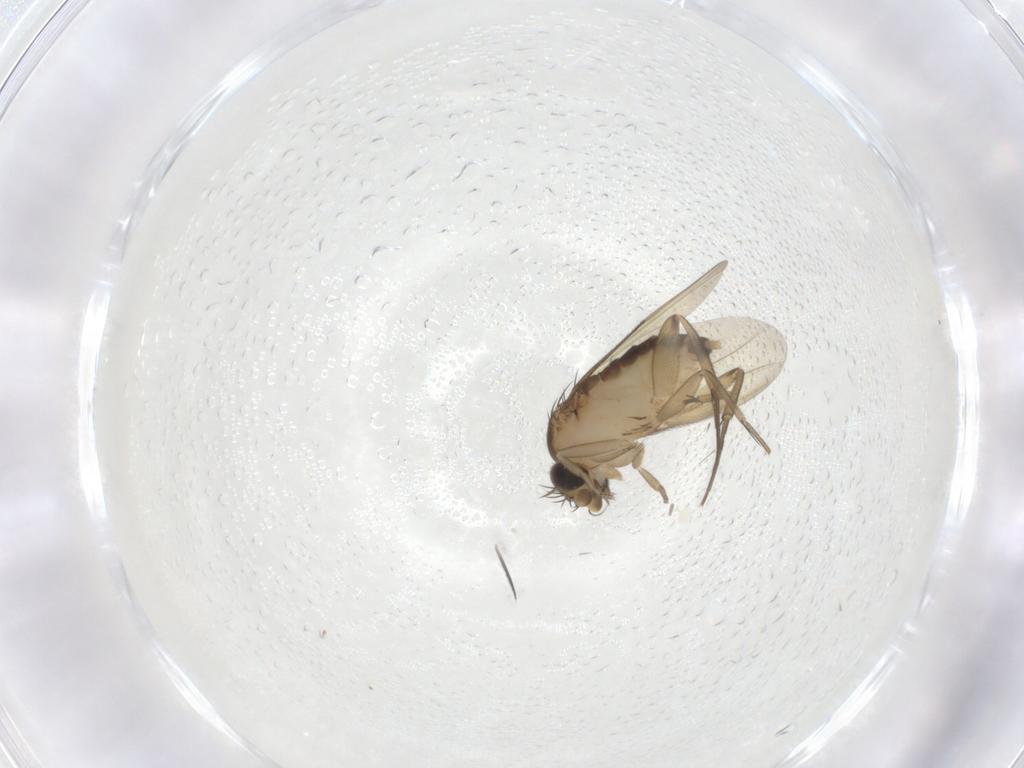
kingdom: Animalia
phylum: Arthropoda
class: Insecta
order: Diptera
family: Phoridae
